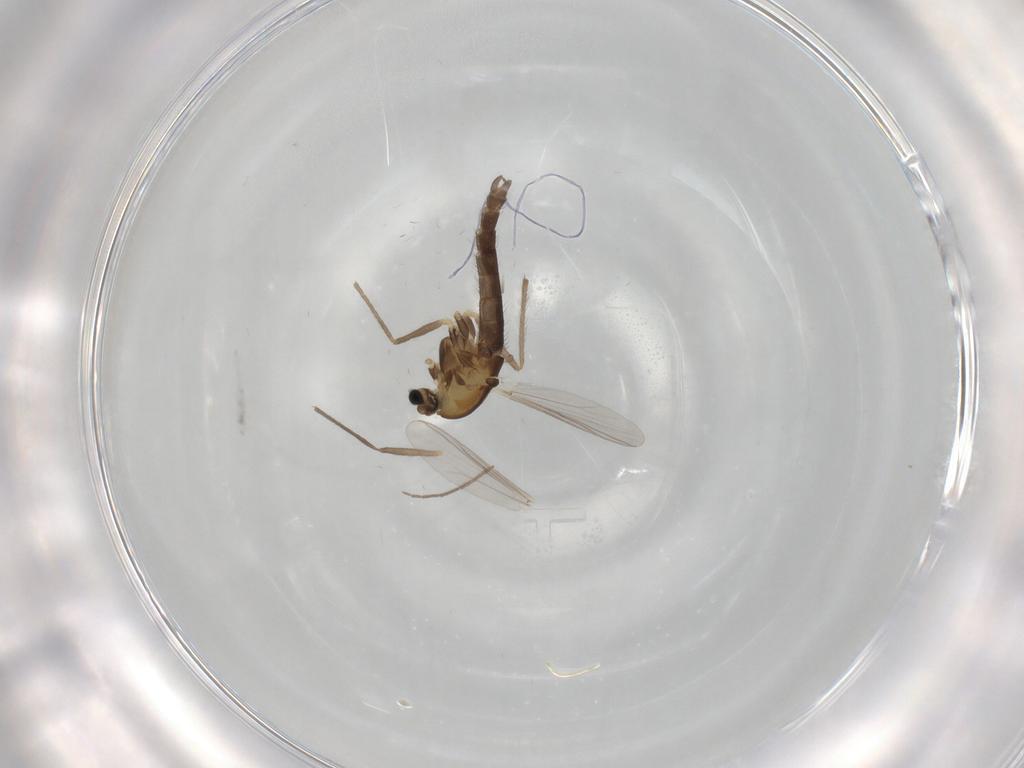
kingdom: Animalia
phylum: Arthropoda
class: Insecta
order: Diptera
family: Chironomidae
